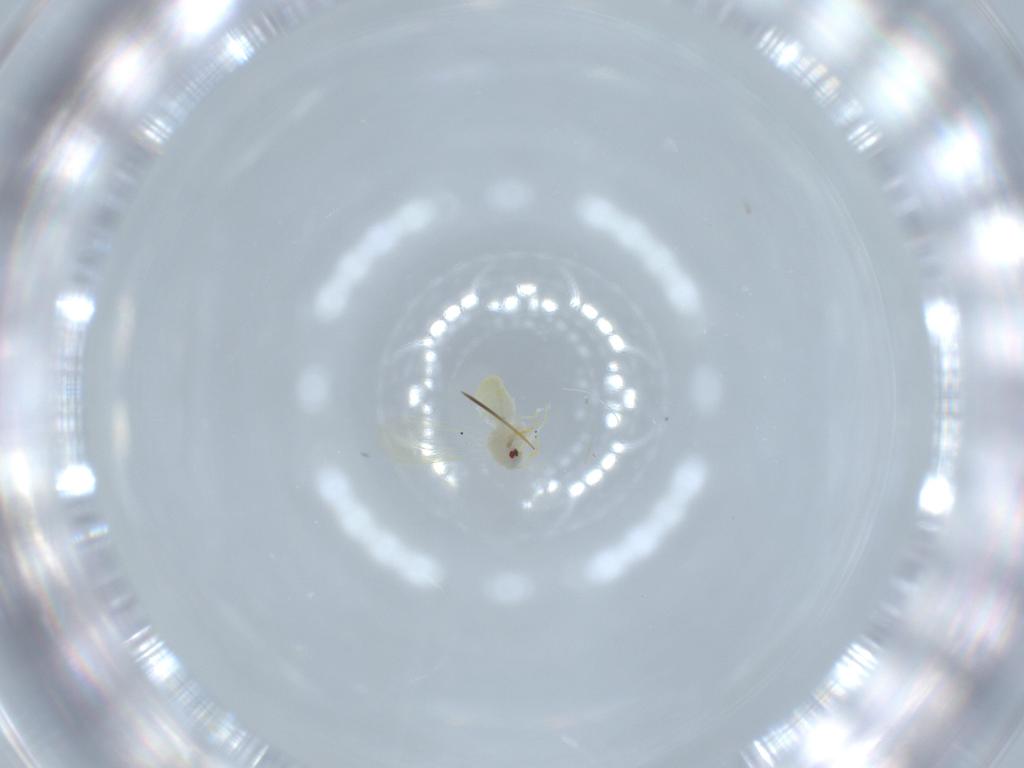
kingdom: Animalia
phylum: Arthropoda
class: Insecta
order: Hemiptera
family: Aleyrodidae
